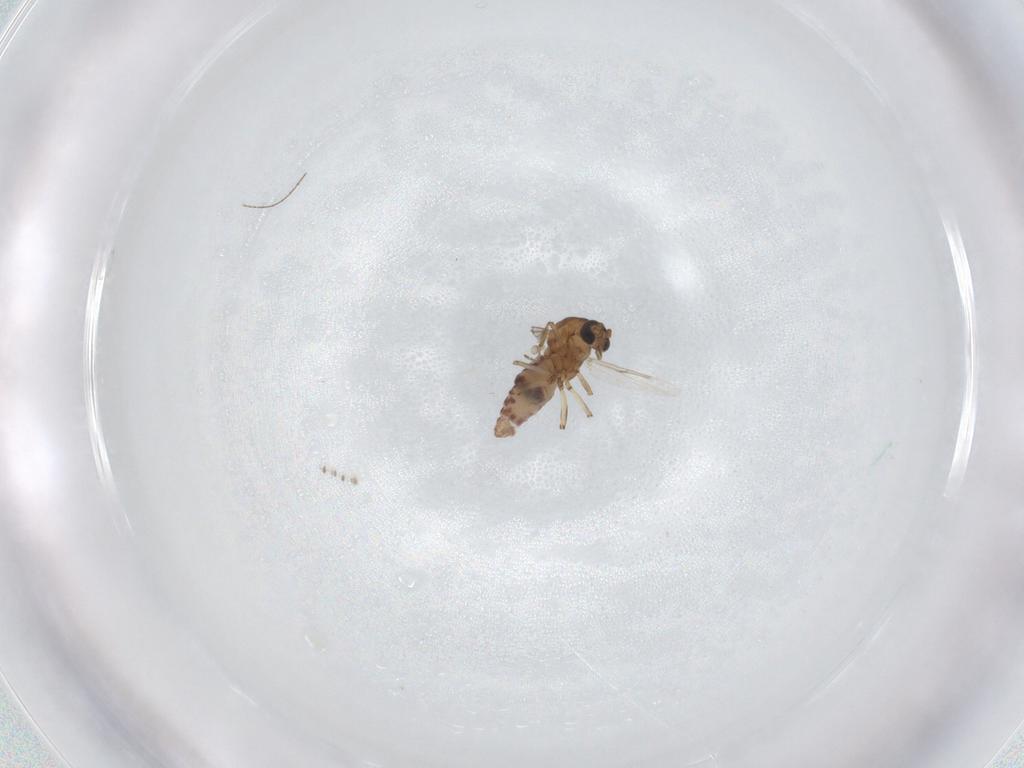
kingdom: Animalia
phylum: Arthropoda
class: Insecta
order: Diptera
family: Ceratopogonidae
